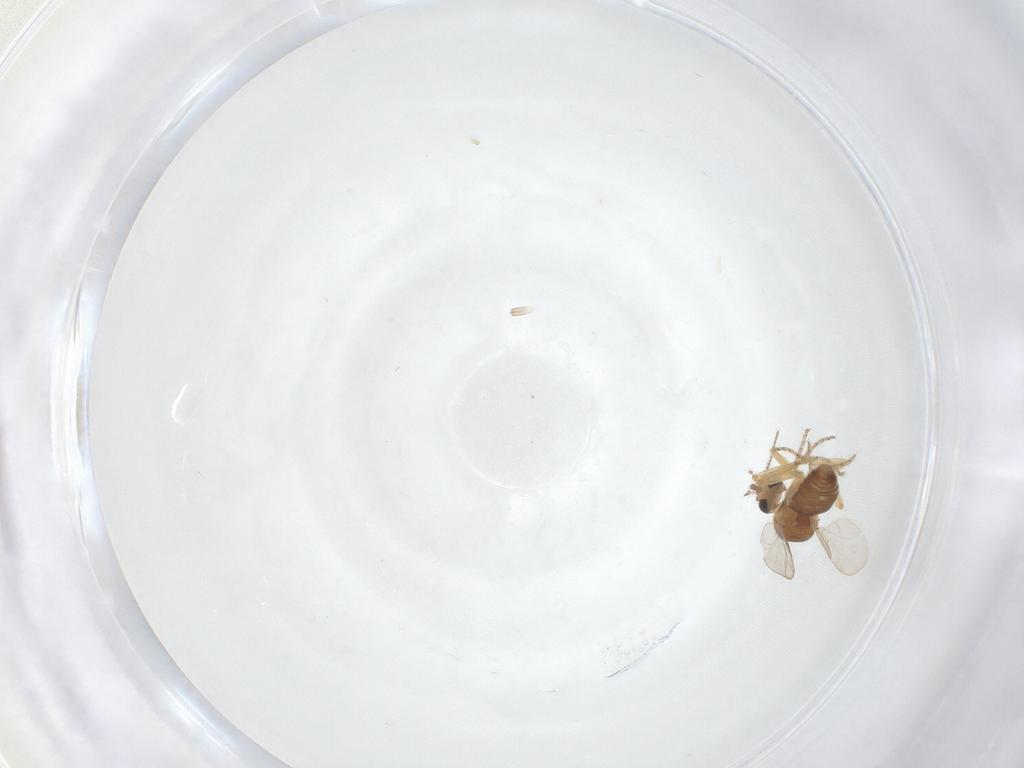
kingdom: Animalia
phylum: Arthropoda
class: Insecta
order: Diptera
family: Ceratopogonidae
